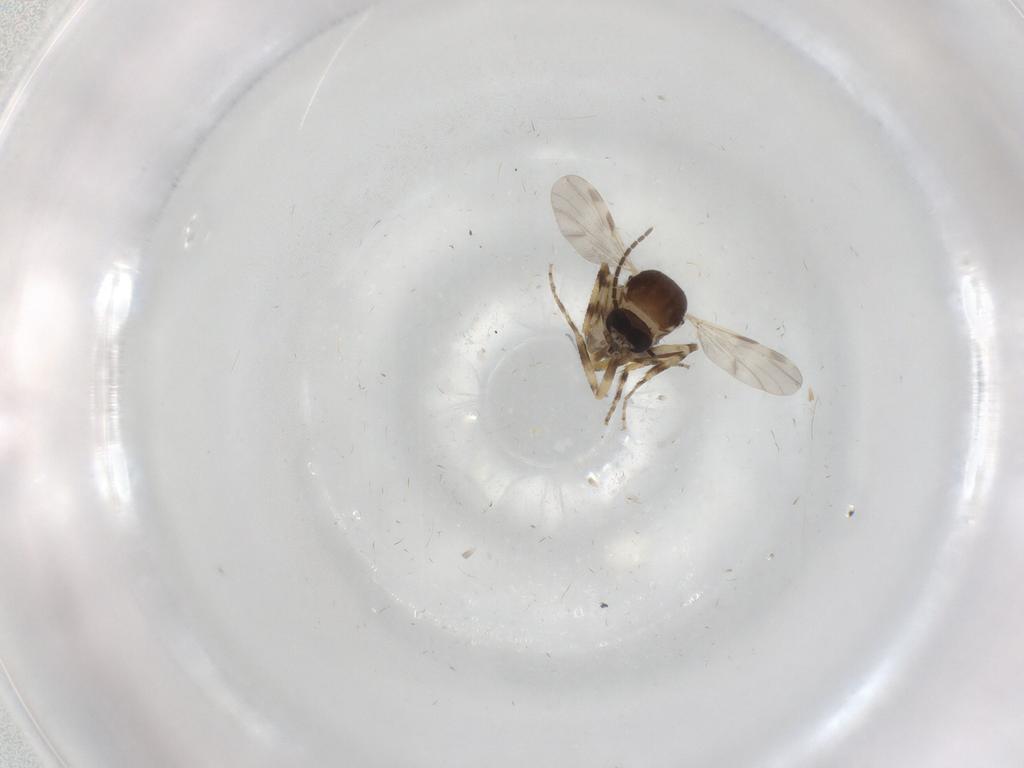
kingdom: Animalia
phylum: Arthropoda
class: Insecta
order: Diptera
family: Ceratopogonidae
